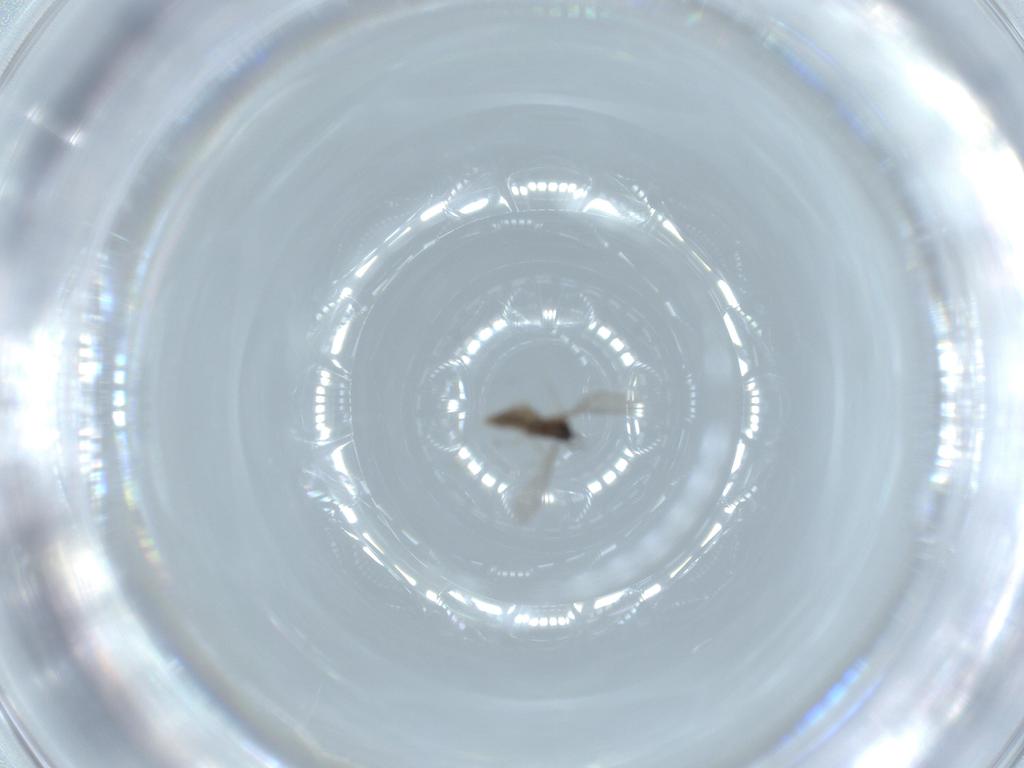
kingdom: Animalia
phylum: Arthropoda
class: Insecta
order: Diptera
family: Cecidomyiidae
